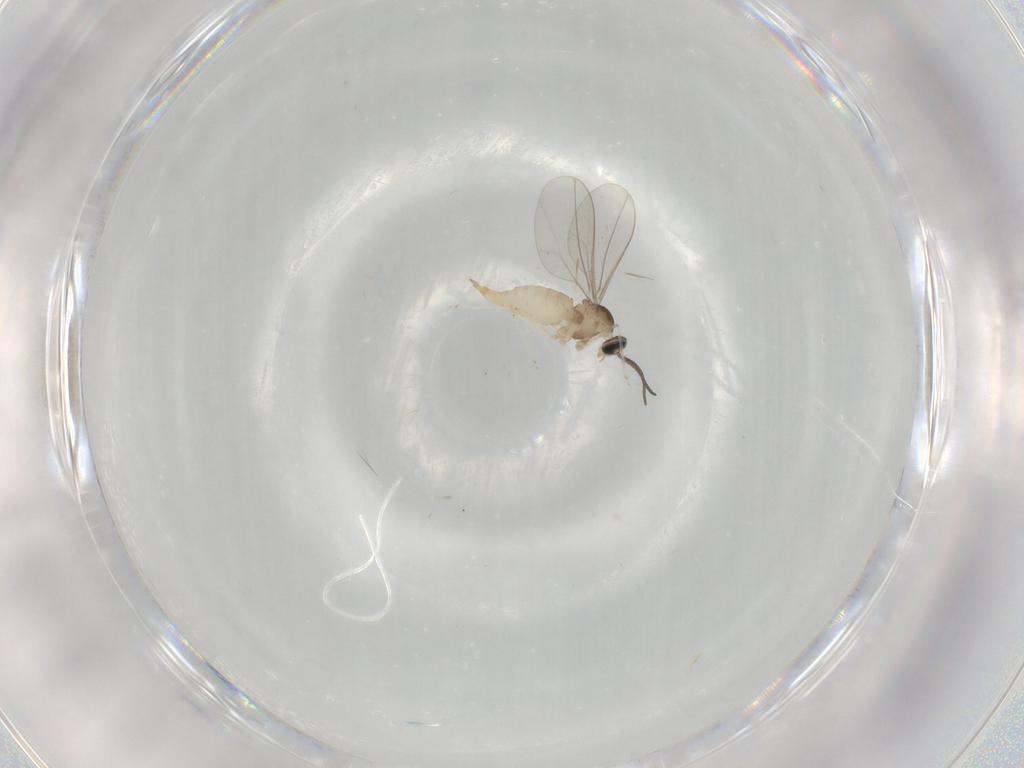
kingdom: Animalia
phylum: Arthropoda
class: Insecta
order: Diptera
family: Cecidomyiidae
